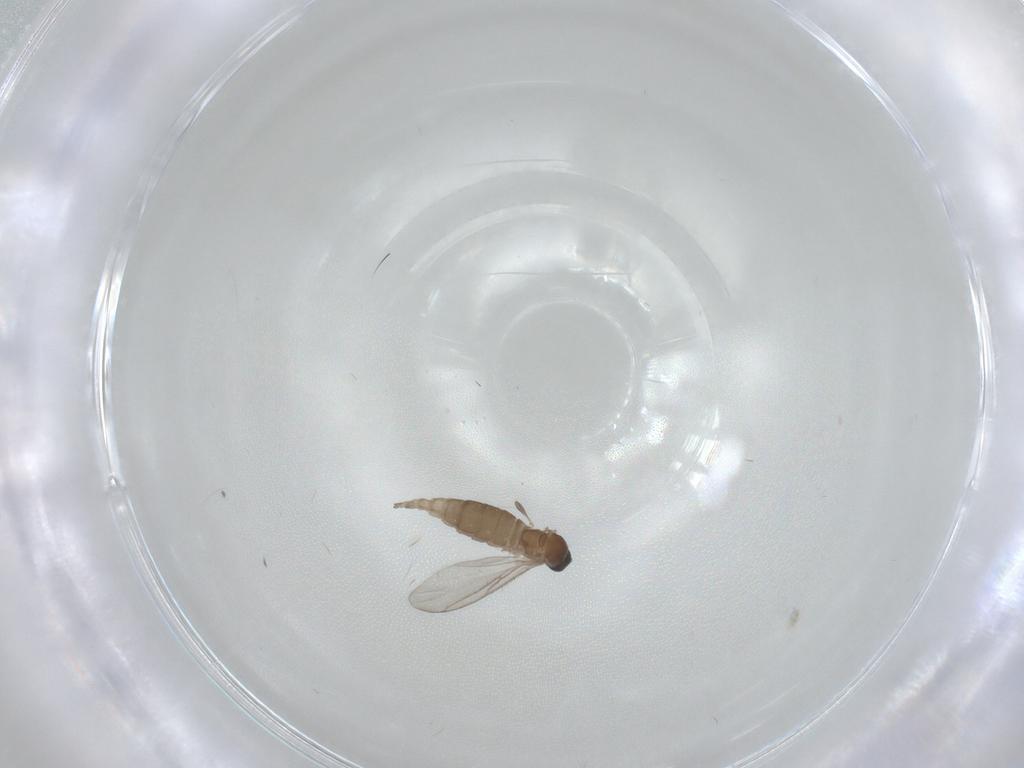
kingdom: Animalia
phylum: Arthropoda
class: Insecta
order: Diptera
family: Sciaridae
